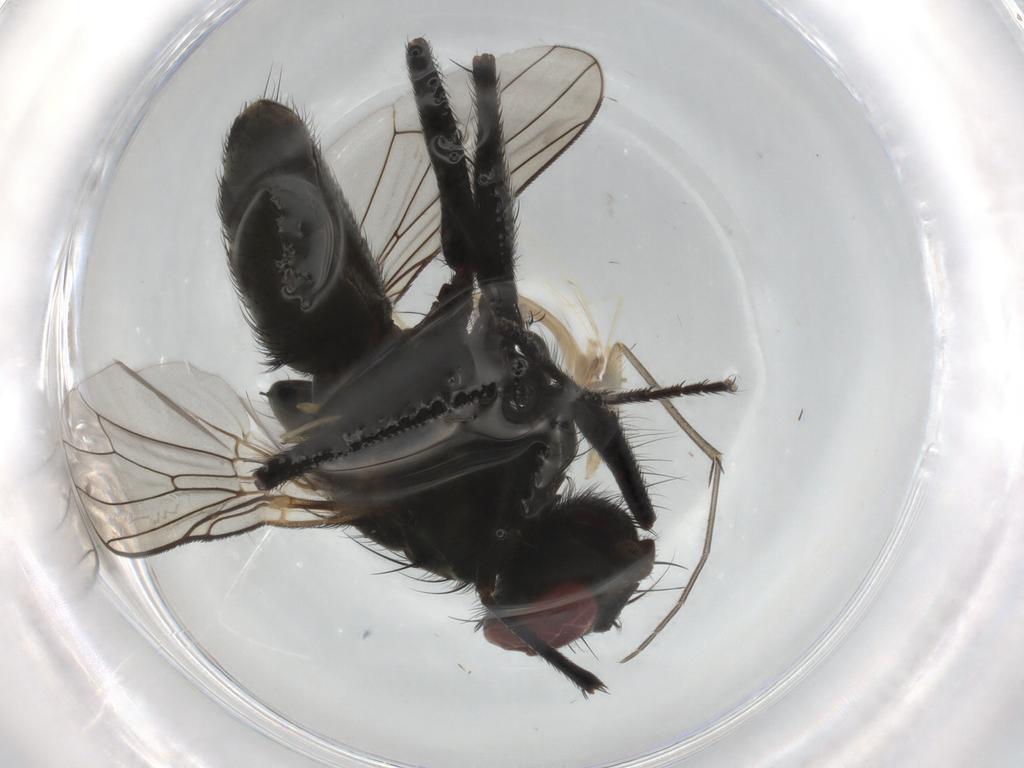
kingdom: Animalia
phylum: Arthropoda
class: Insecta
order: Diptera
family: Muscidae
